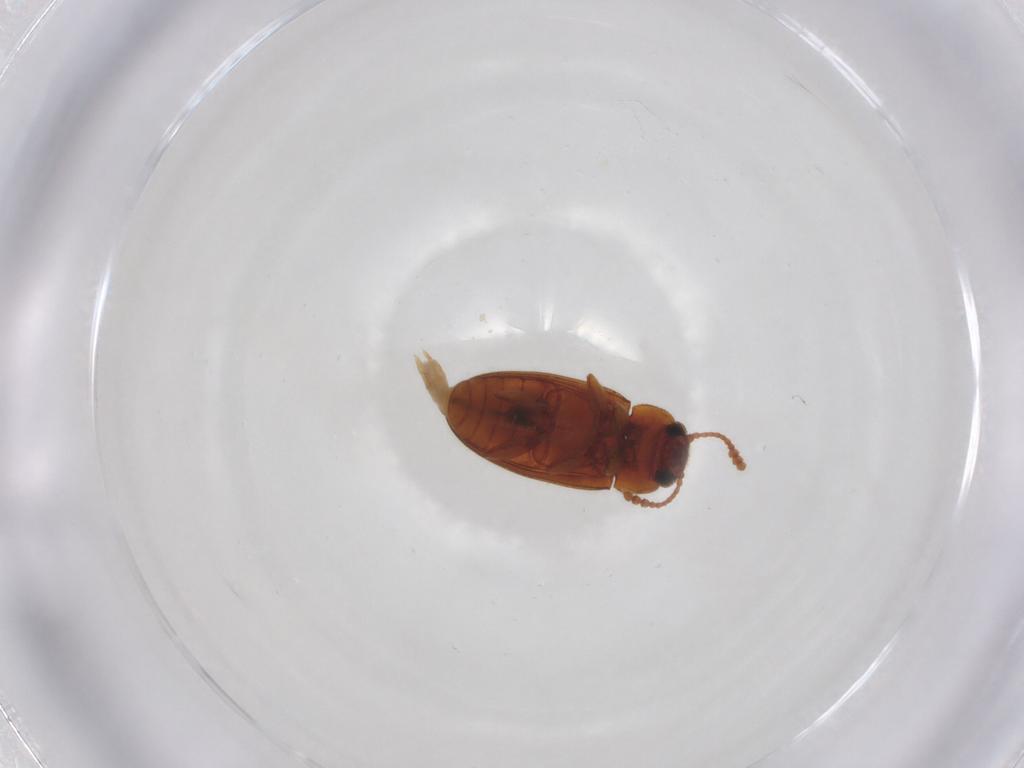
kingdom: Animalia
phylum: Arthropoda
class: Insecta
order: Coleoptera
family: Erotylidae
